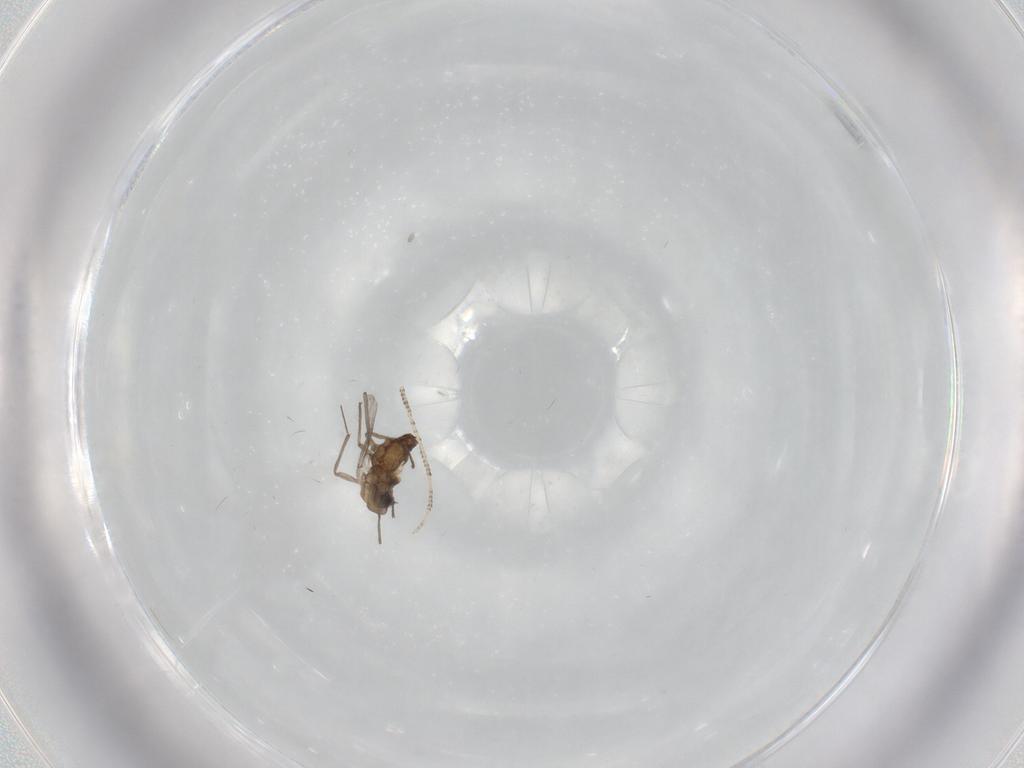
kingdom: Animalia
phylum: Arthropoda
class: Insecta
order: Diptera
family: Chironomidae
